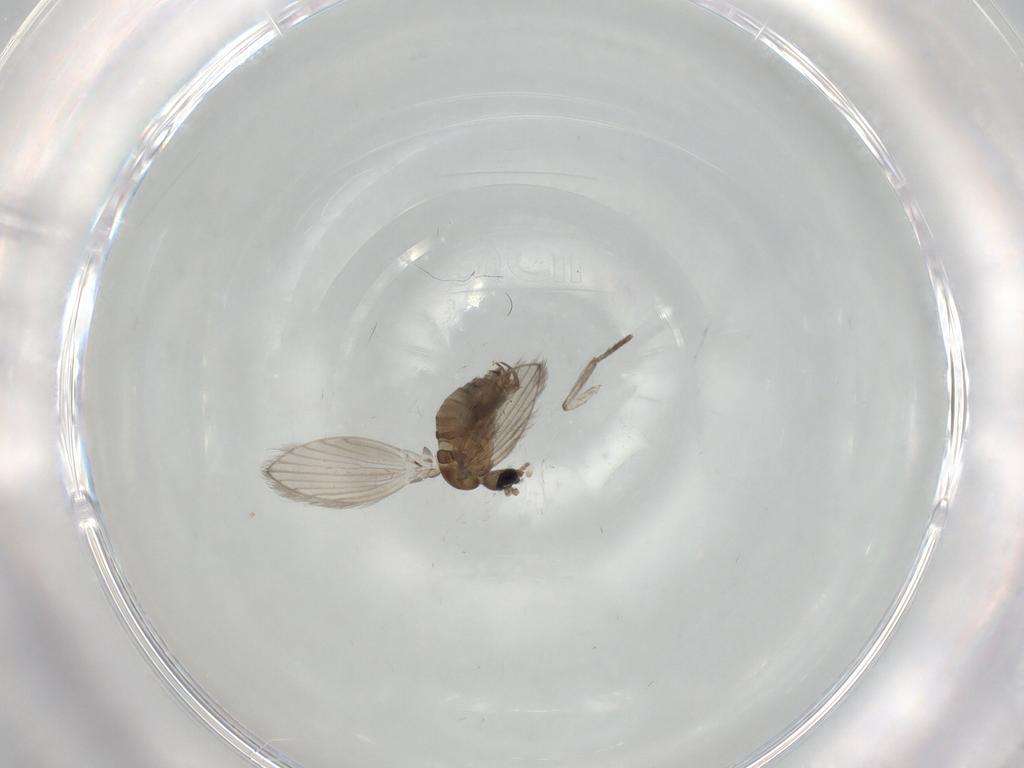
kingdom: Animalia
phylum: Arthropoda
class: Insecta
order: Diptera
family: Psychodidae
